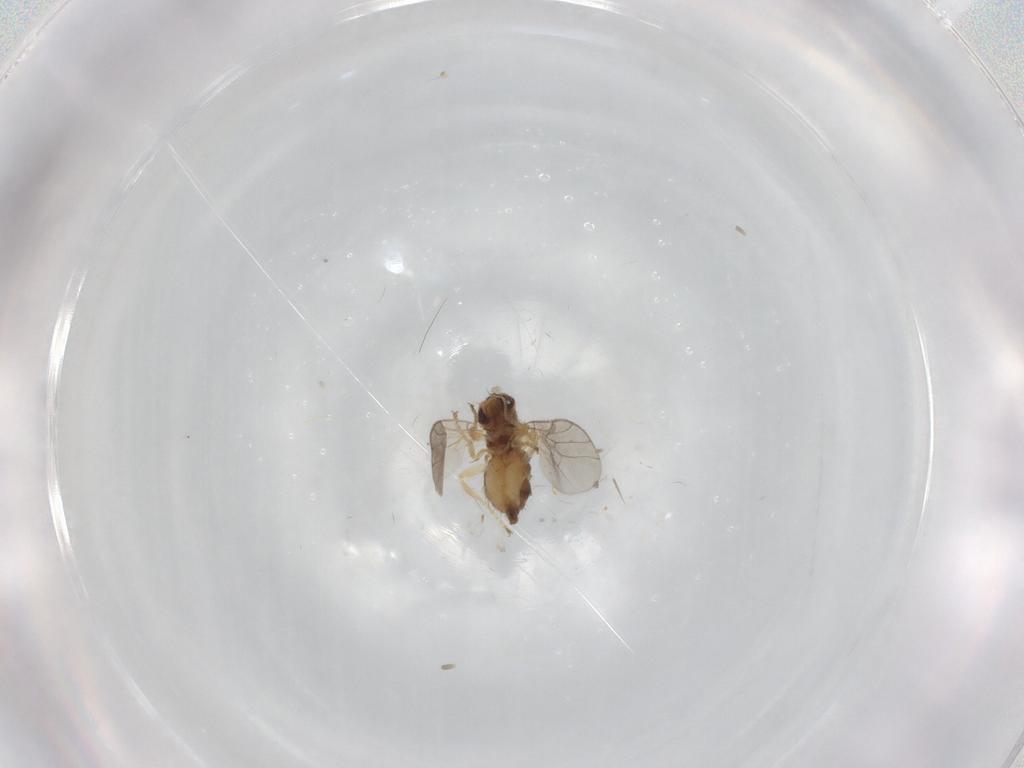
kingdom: Animalia
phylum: Arthropoda
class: Insecta
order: Diptera
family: Chloropidae
